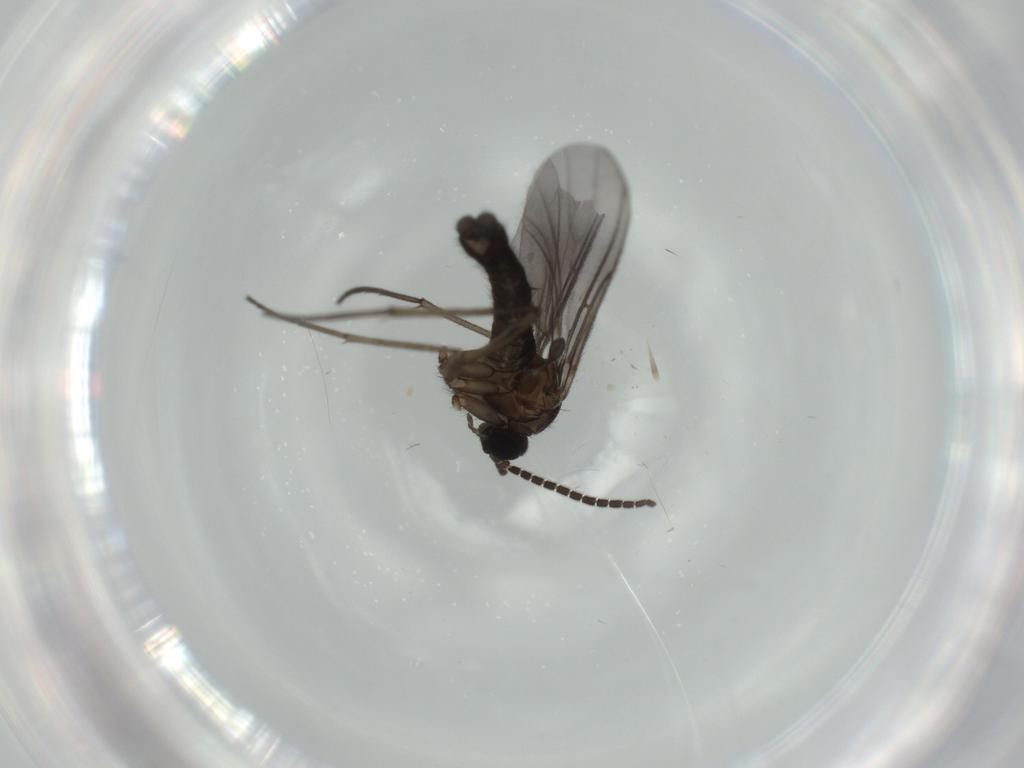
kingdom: Animalia
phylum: Arthropoda
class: Insecta
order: Diptera
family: Sciaridae
